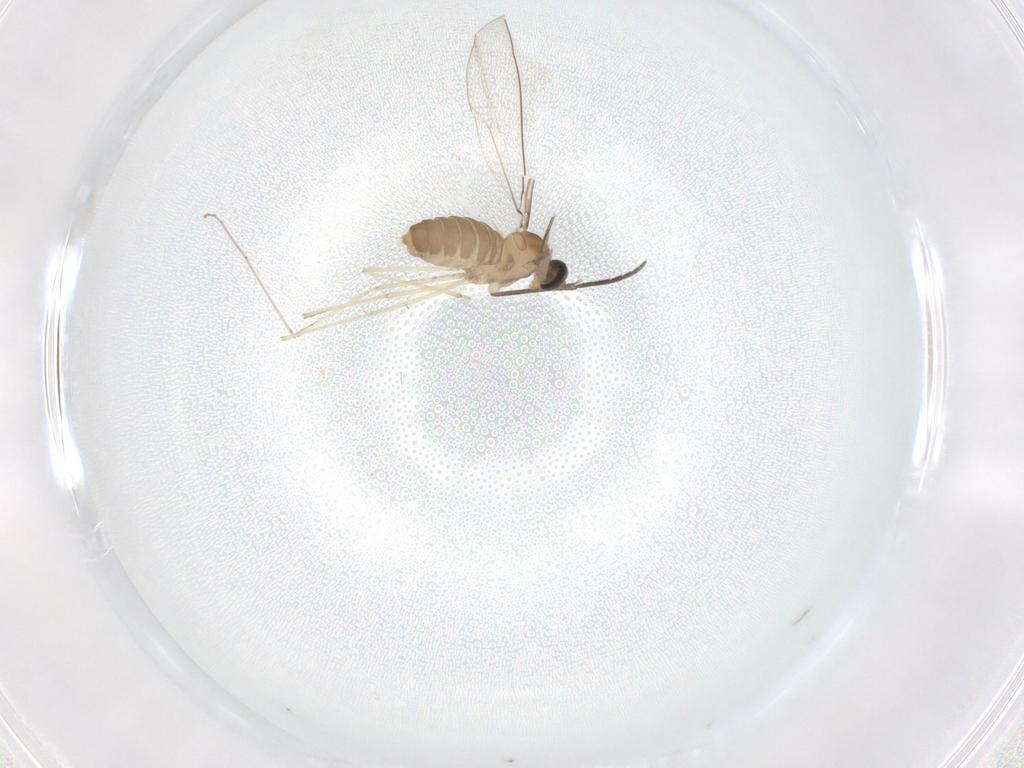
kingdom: Animalia
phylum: Arthropoda
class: Insecta
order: Diptera
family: Cecidomyiidae
